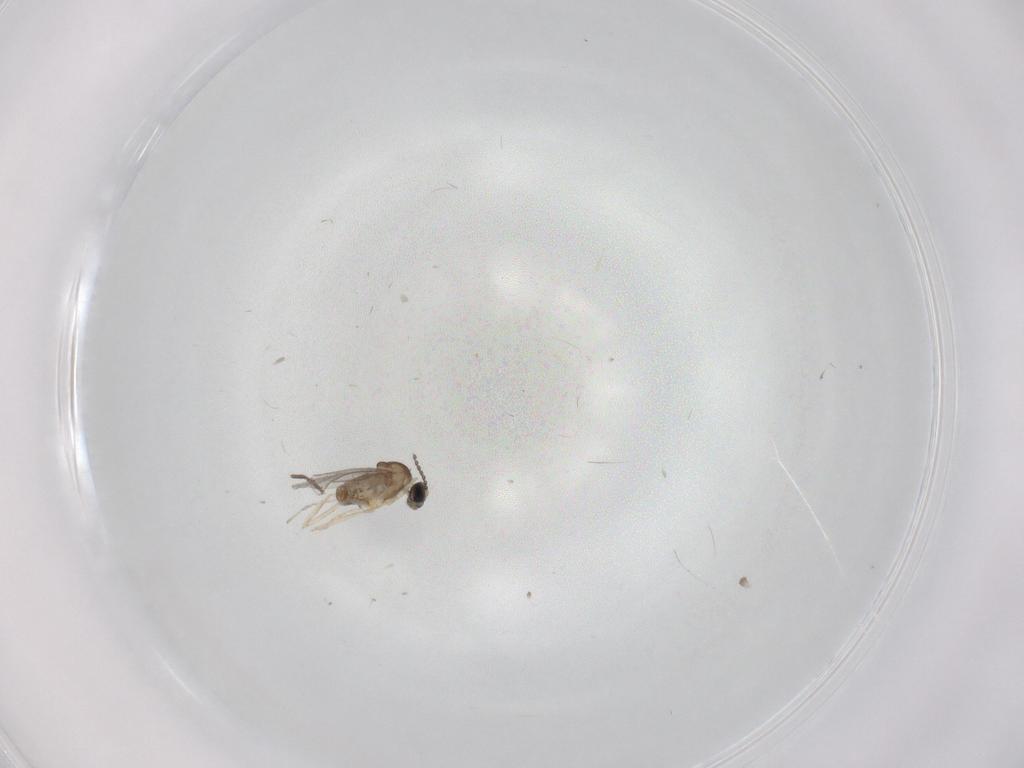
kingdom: Animalia
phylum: Arthropoda
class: Insecta
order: Diptera
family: Cecidomyiidae
